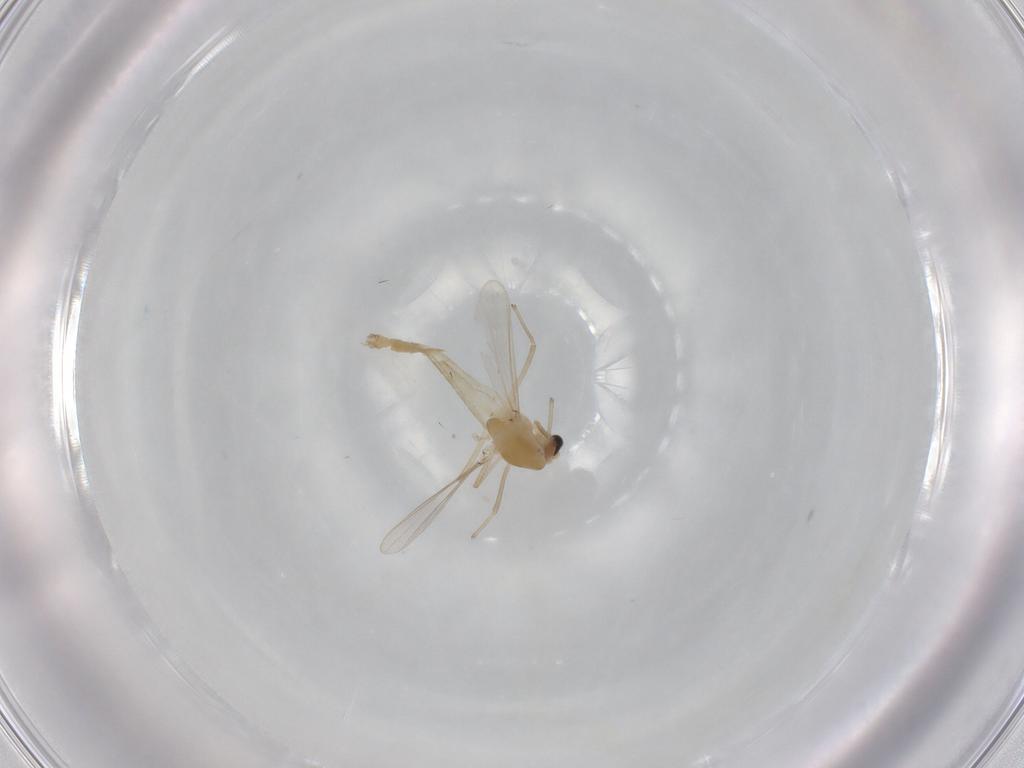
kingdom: Animalia
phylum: Arthropoda
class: Insecta
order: Diptera
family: Chironomidae
